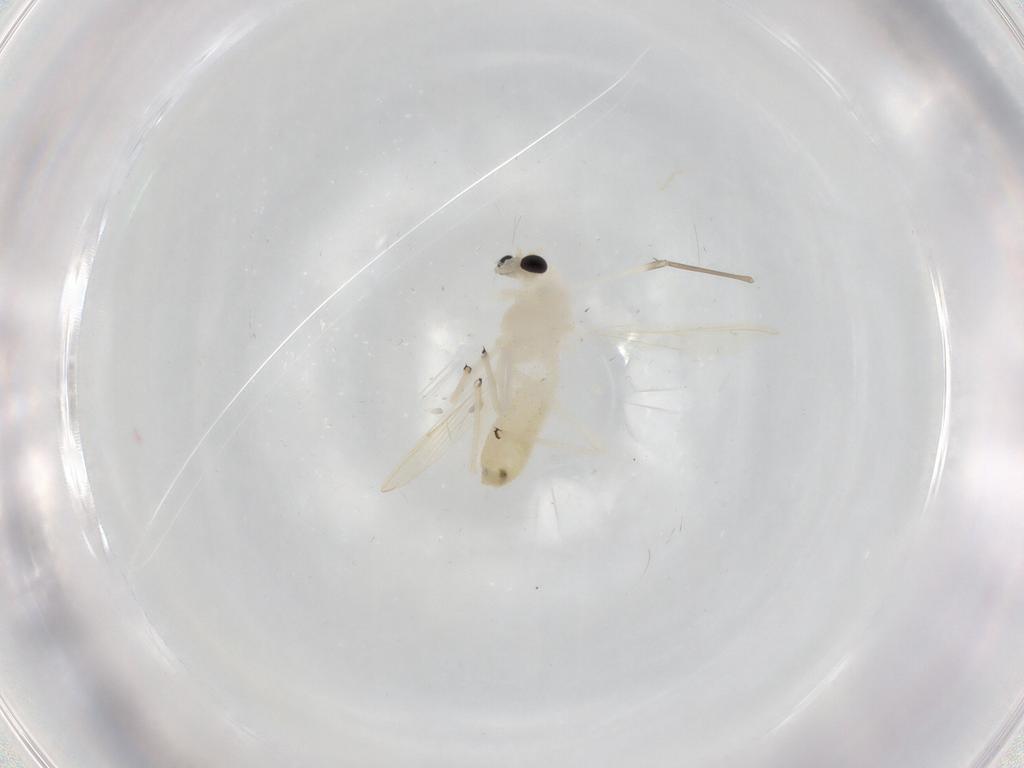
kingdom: Animalia
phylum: Arthropoda
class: Insecta
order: Diptera
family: Chironomidae
